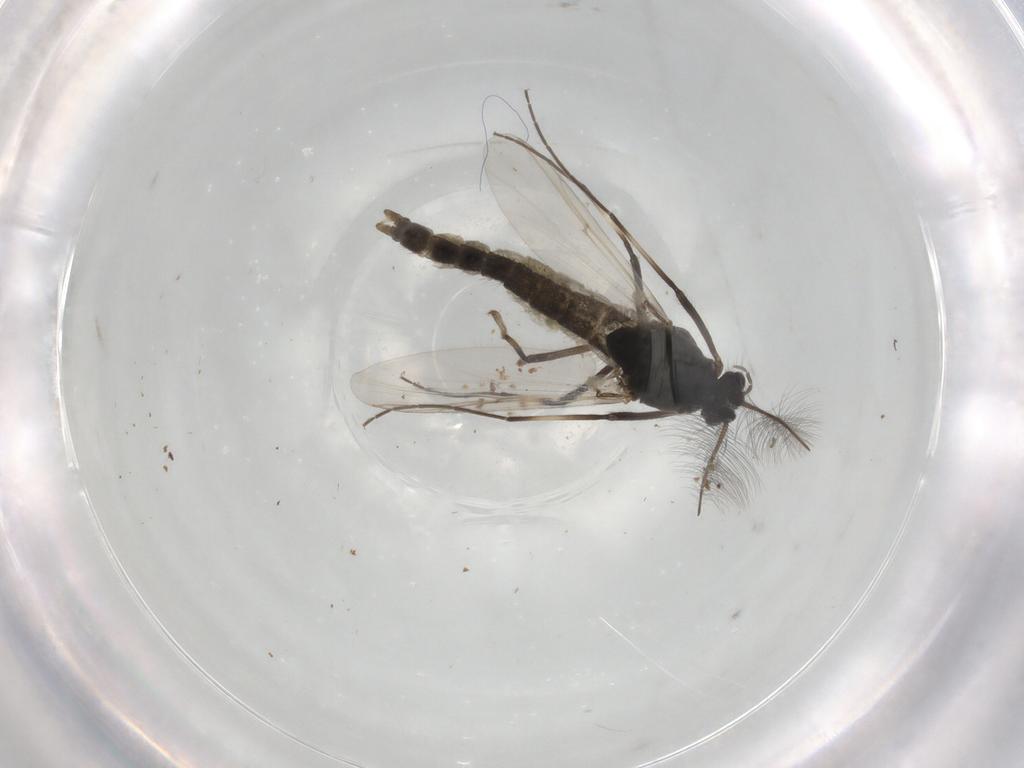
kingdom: Animalia
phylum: Arthropoda
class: Insecta
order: Diptera
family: Chironomidae
